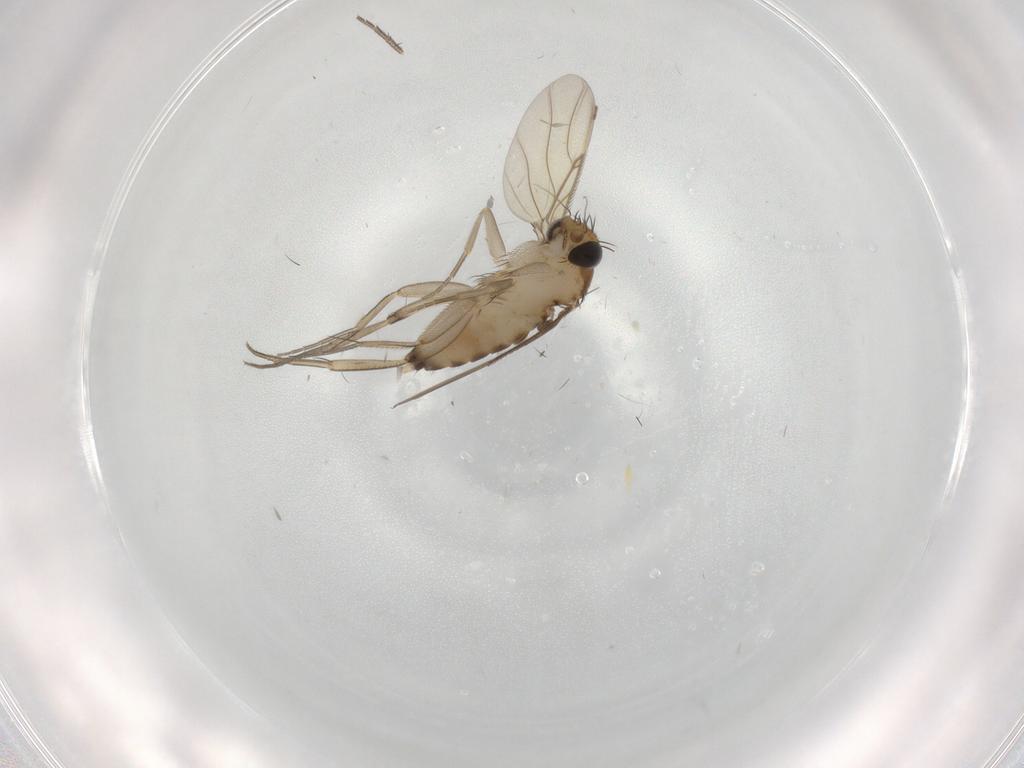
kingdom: Animalia
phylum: Arthropoda
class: Insecta
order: Diptera
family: Phoridae
